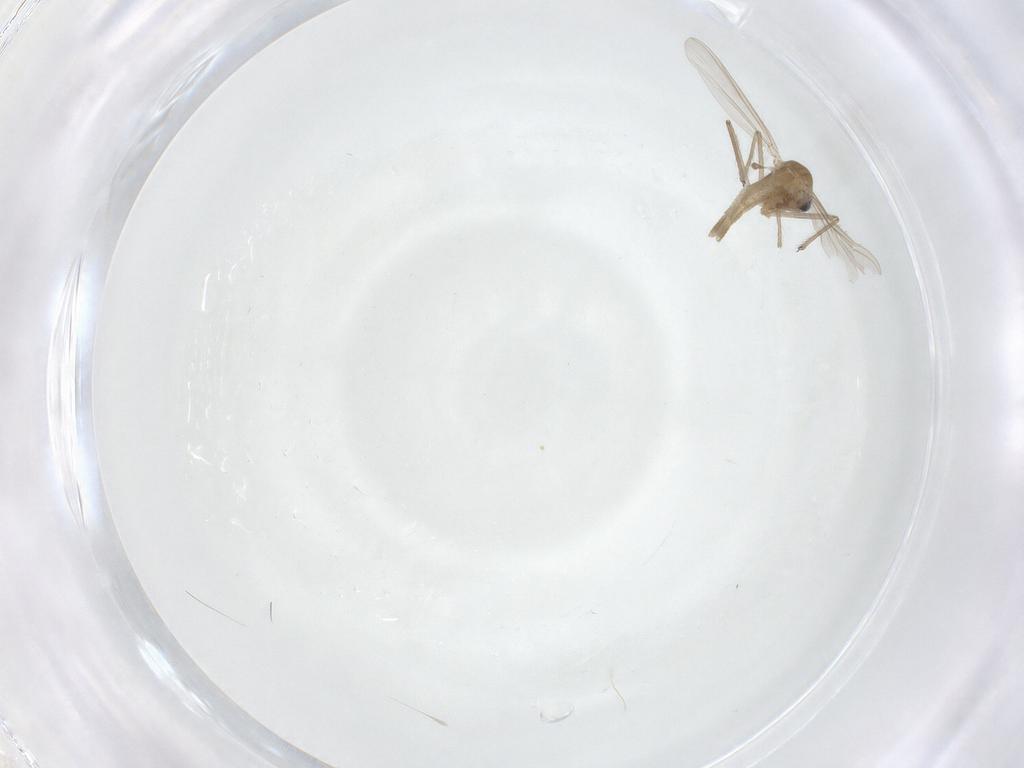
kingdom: Animalia
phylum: Arthropoda
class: Insecta
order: Diptera
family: Chironomidae
